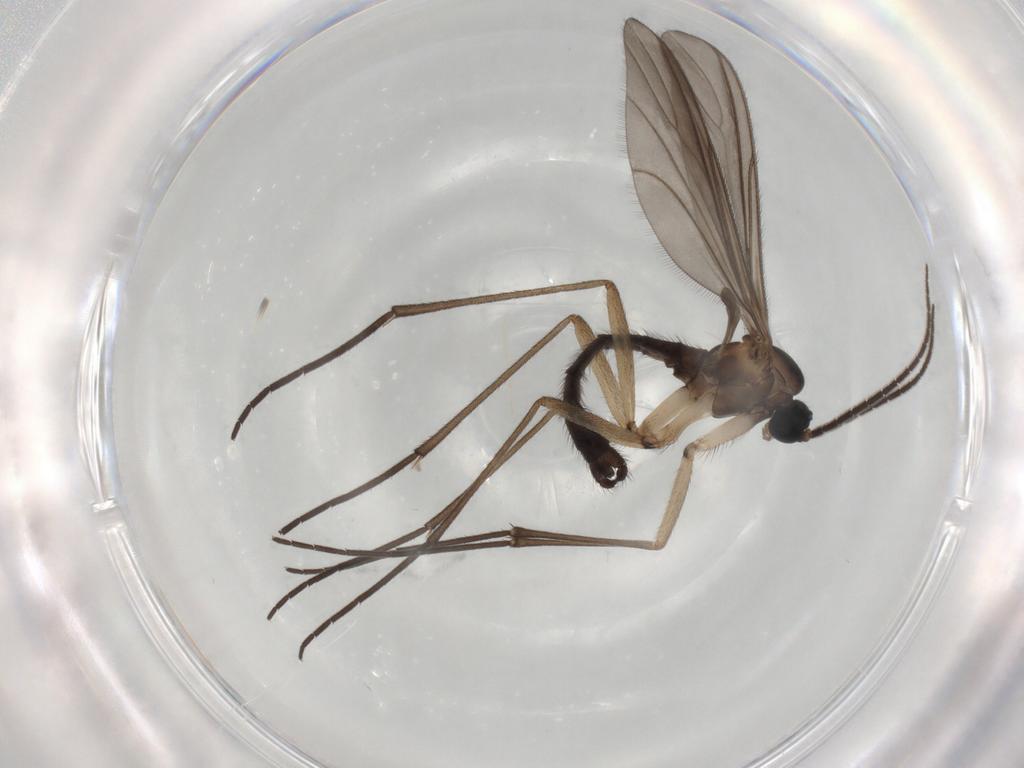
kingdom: Animalia
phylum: Arthropoda
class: Insecta
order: Diptera
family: Sciaridae
